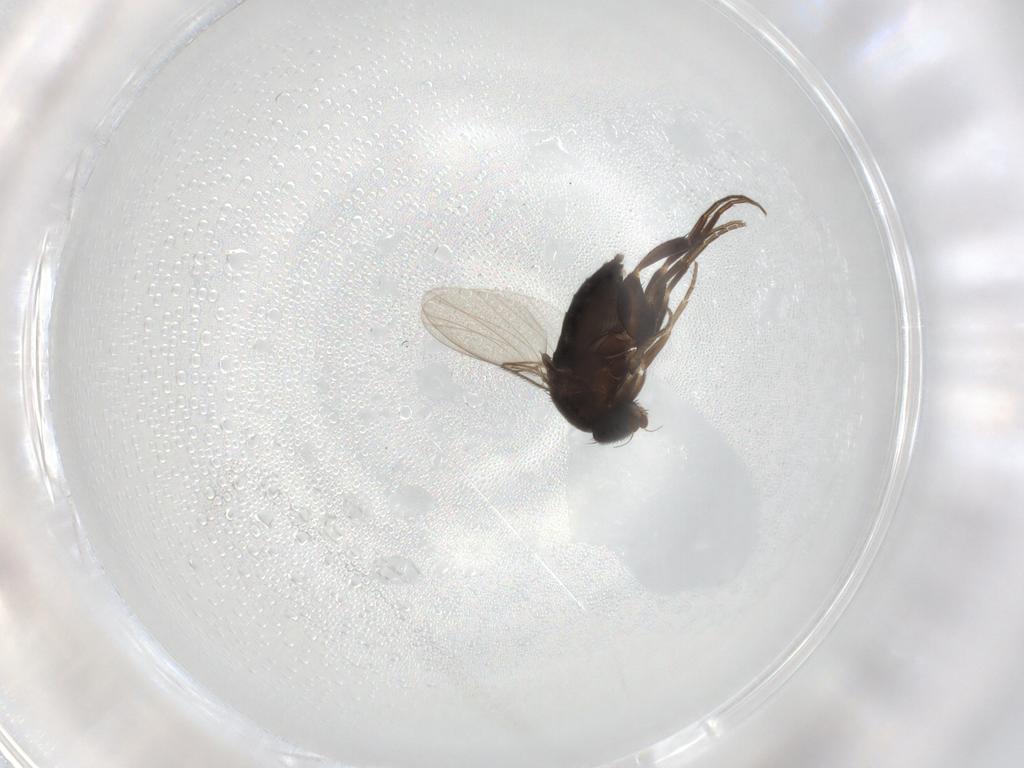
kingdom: Animalia
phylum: Arthropoda
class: Insecta
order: Diptera
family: Phoridae
